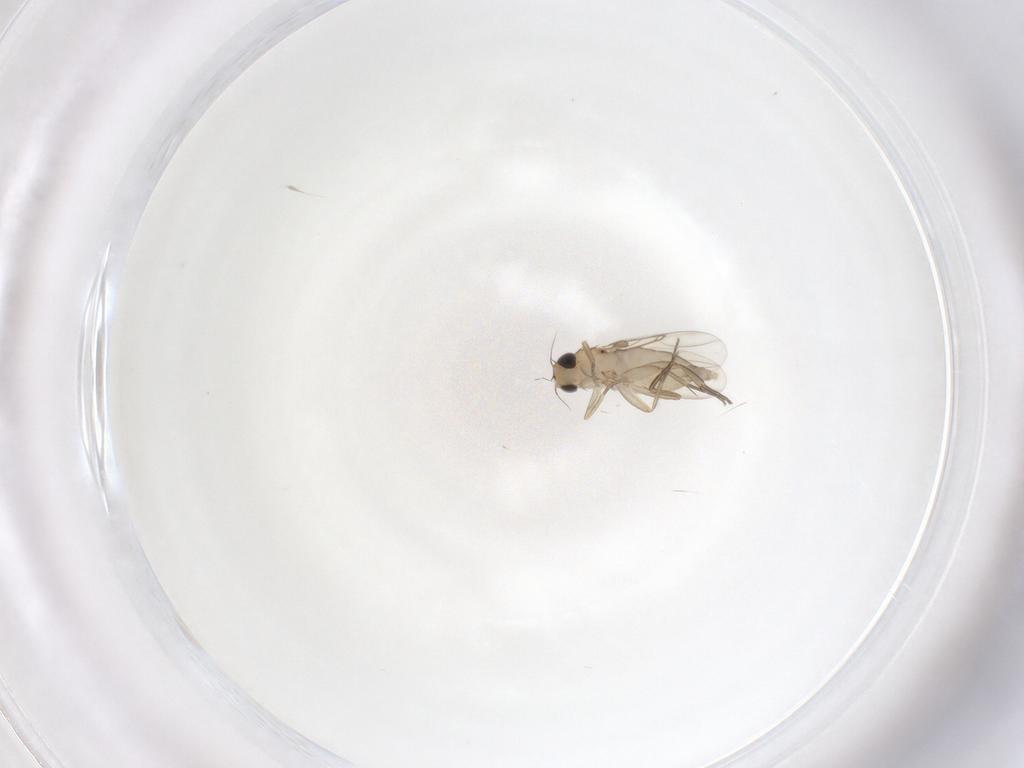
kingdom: Animalia
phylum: Arthropoda
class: Insecta
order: Diptera
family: Phoridae
